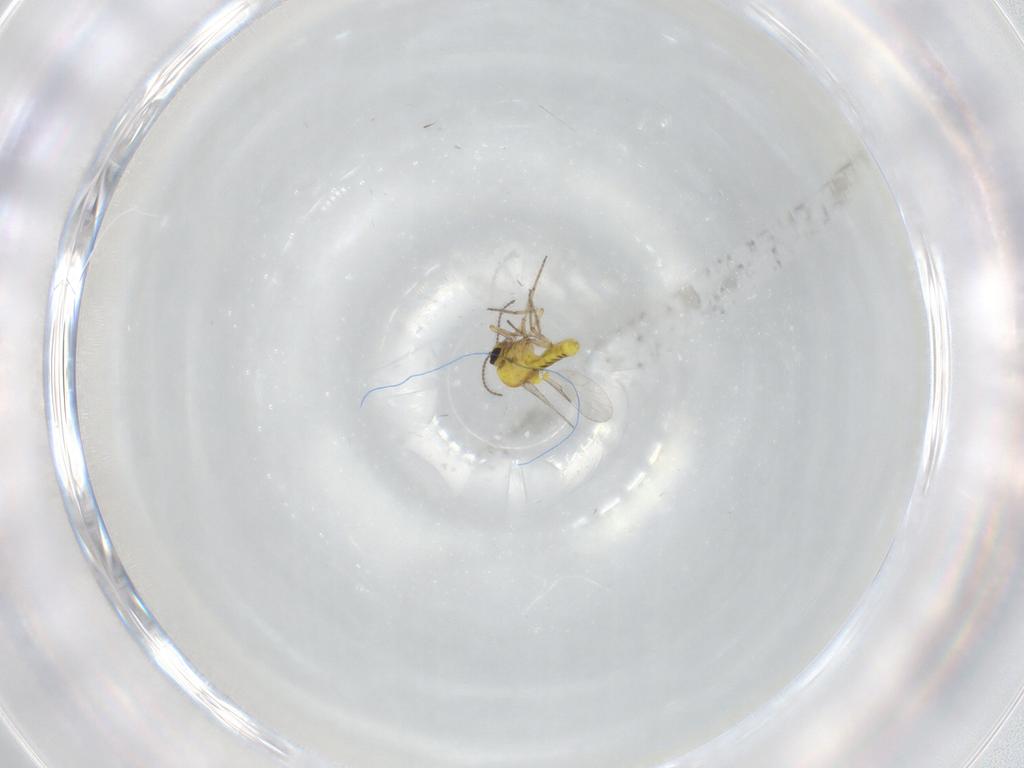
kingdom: Animalia
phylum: Arthropoda
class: Insecta
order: Diptera
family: Ceratopogonidae
